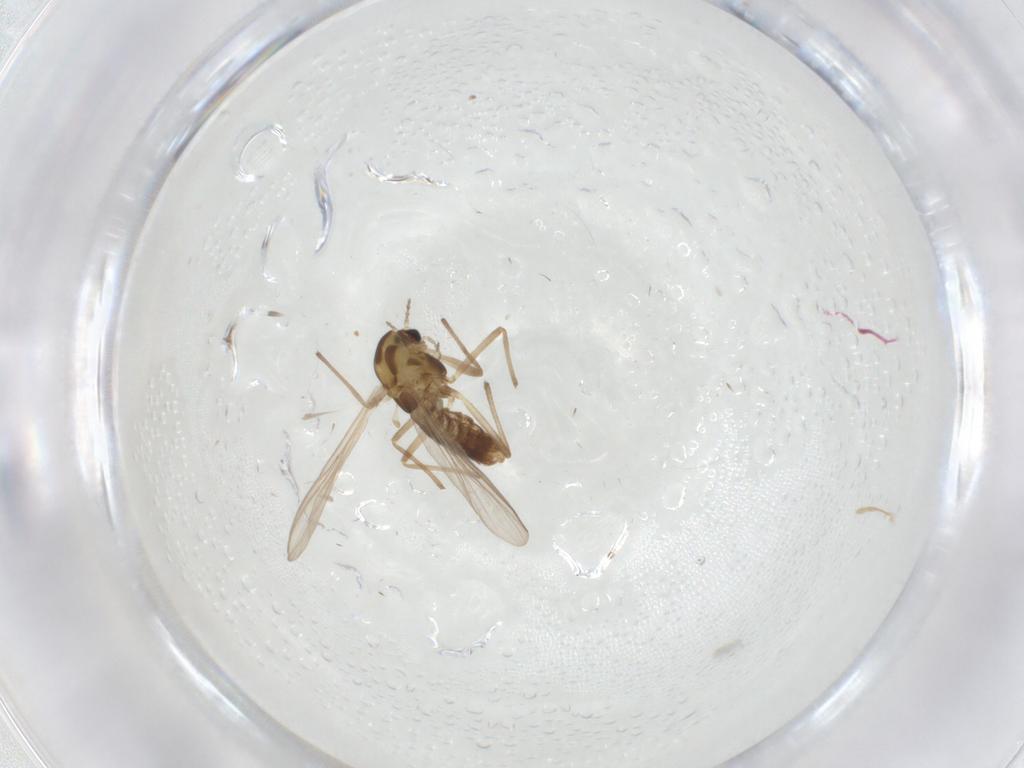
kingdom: Animalia
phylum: Arthropoda
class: Insecta
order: Diptera
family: Chironomidae
